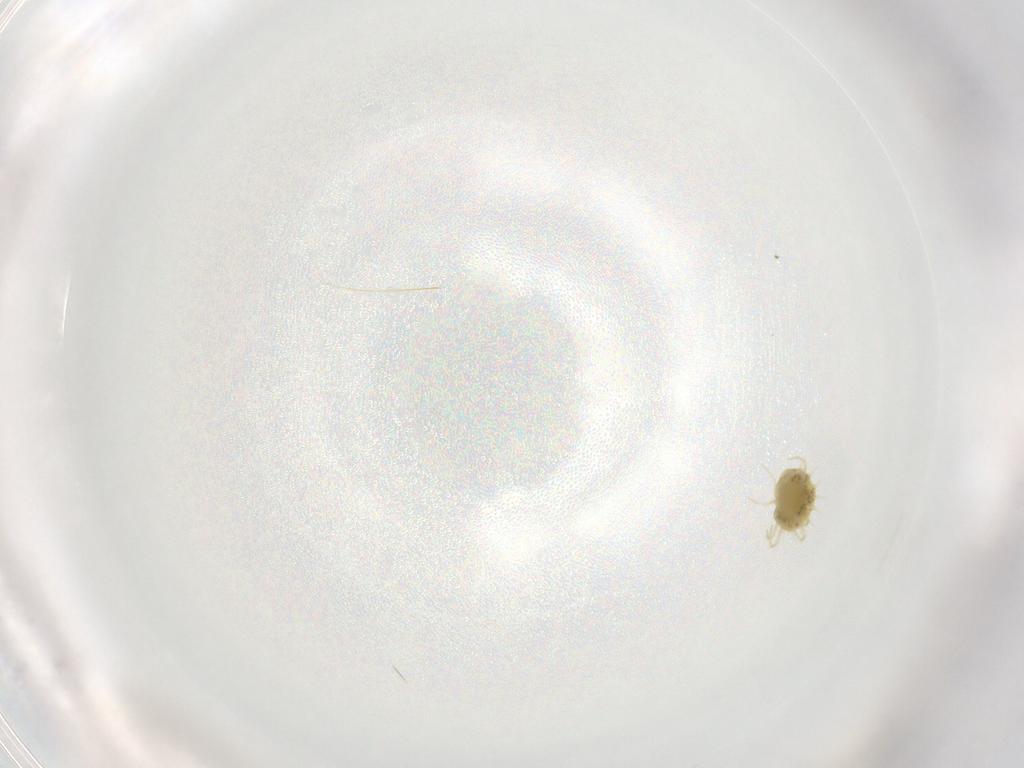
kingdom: Animalia
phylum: Arthropoda
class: Arachnida
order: Trombidiformes
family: Tetranychidae
